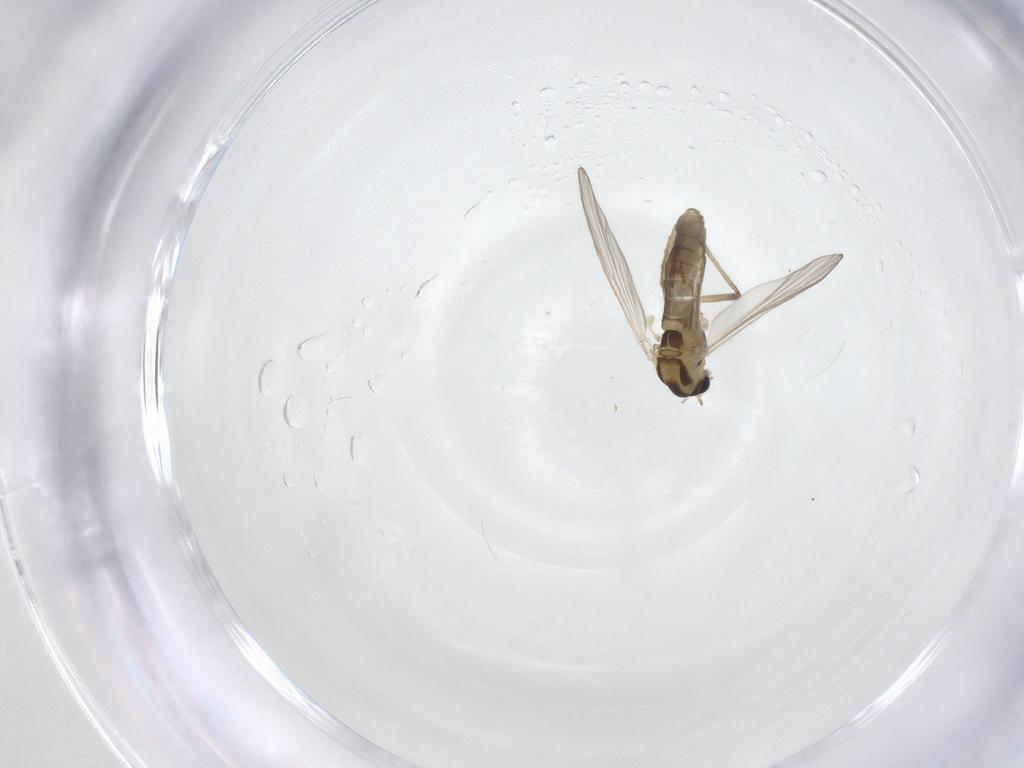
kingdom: Animalia
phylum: Arthropoda
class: Insecta
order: Diptera
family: Chironomidae
